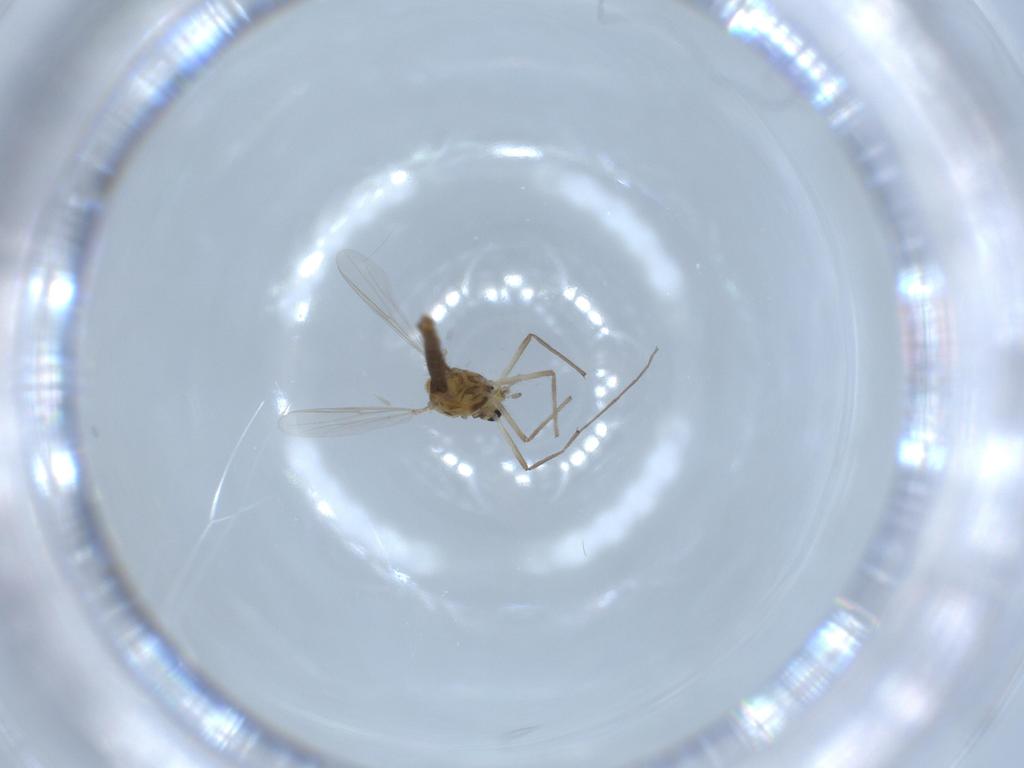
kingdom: Animalia
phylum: Arthropoda
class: Insecta
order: Diptera
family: Chironomidae
